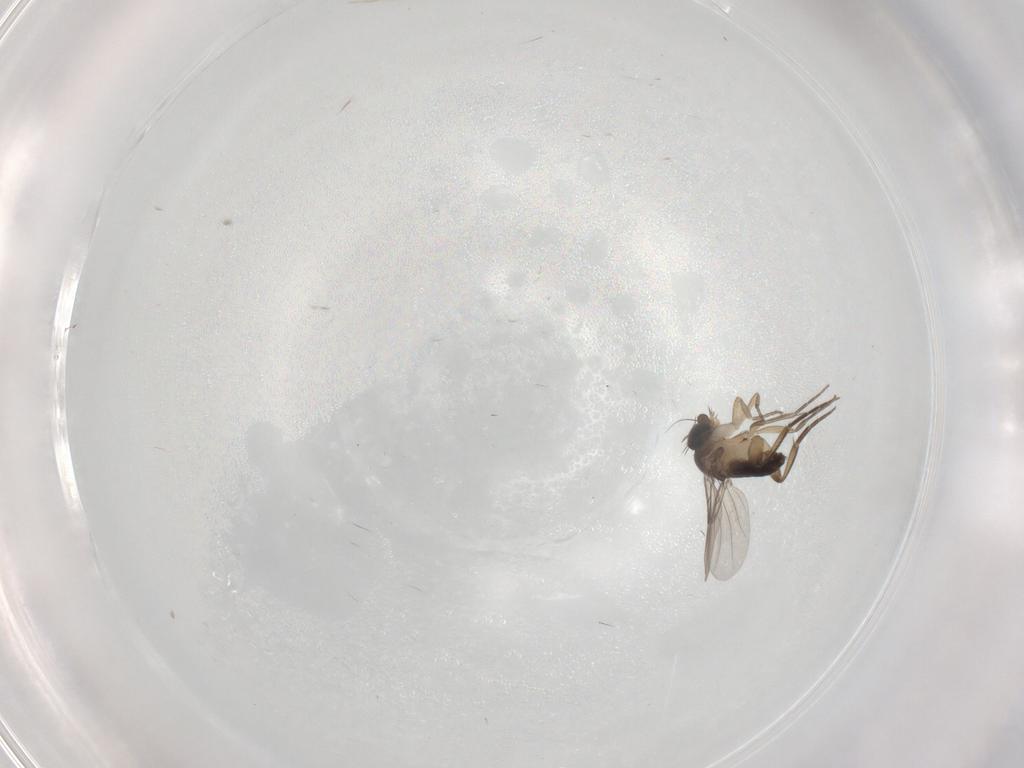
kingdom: Animalia
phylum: Arthropoda
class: Insecta
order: Diptera
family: Phoridae
